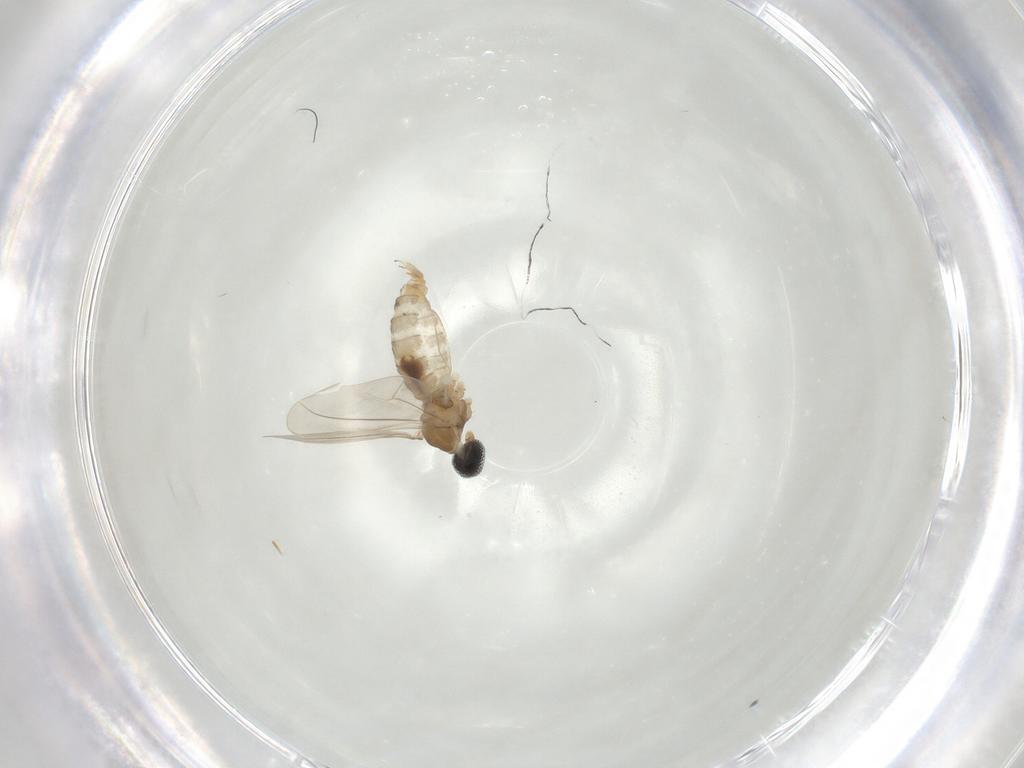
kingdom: Animalia
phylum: Arthropoda
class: Insecta
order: Diptera
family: Cecidomyiidae
